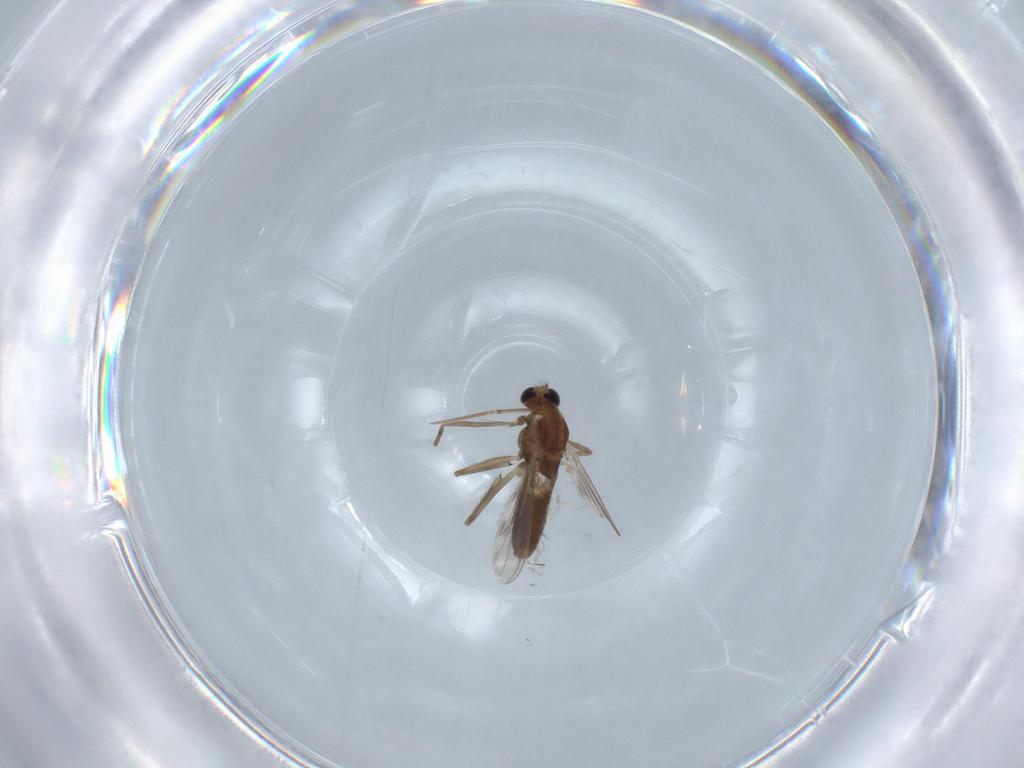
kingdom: Animalia
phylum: Arthropoda
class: Insecta
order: Diptera
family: Chironomidae
